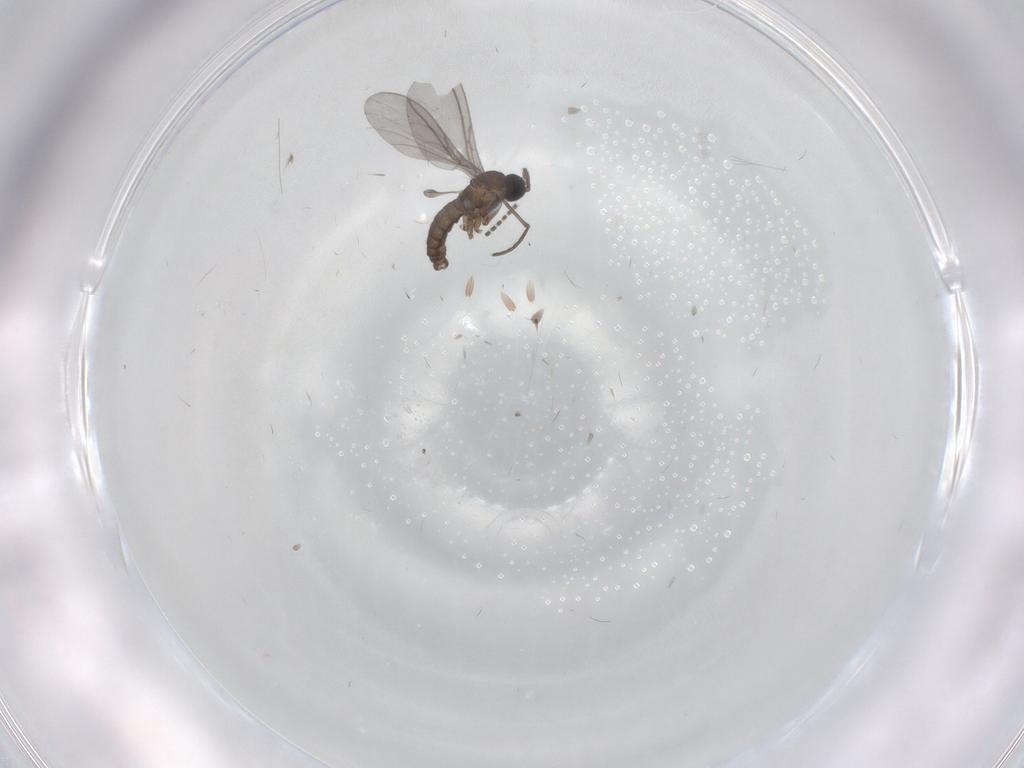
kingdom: Animalia
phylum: Arthropoda
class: Insecta
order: Diptera
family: Sciaridae
